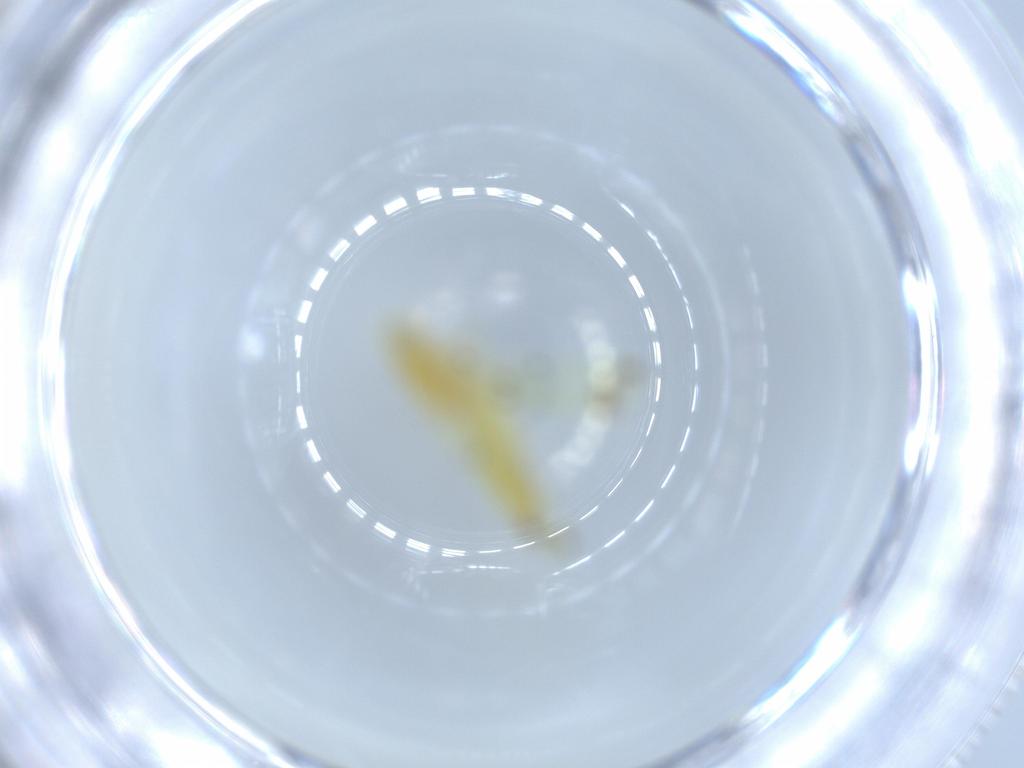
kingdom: Animalia
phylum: Arthropoda
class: Insecta
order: Hemiptera
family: Cicadellidae
